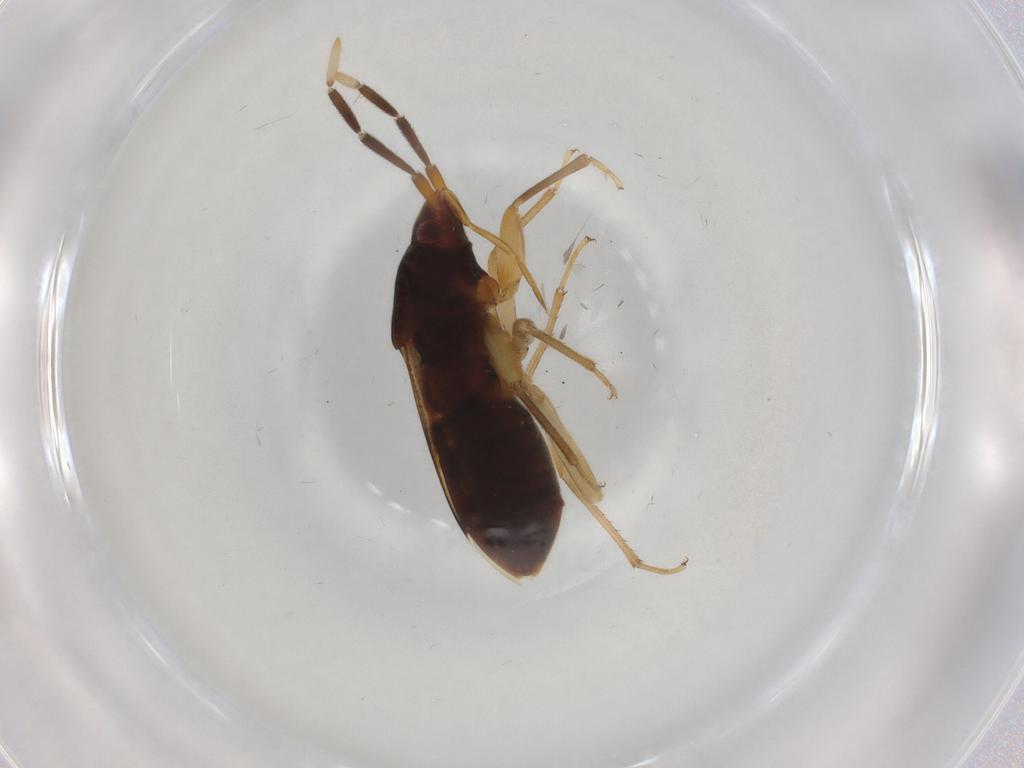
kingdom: Animalia
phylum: Arthropoda
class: Insecta
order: Hemiptera
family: Rhyparochromidae
